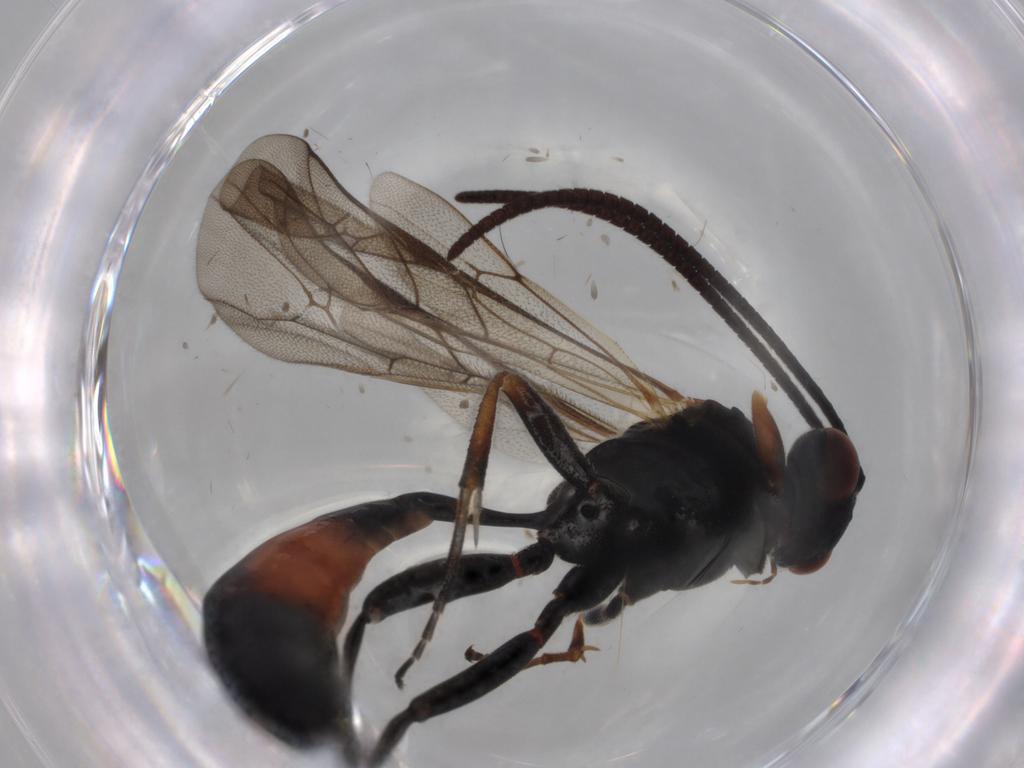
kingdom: Animalia
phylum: Arthropoda
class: Insecta
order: Hymenoptera
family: Ichneumonidae
